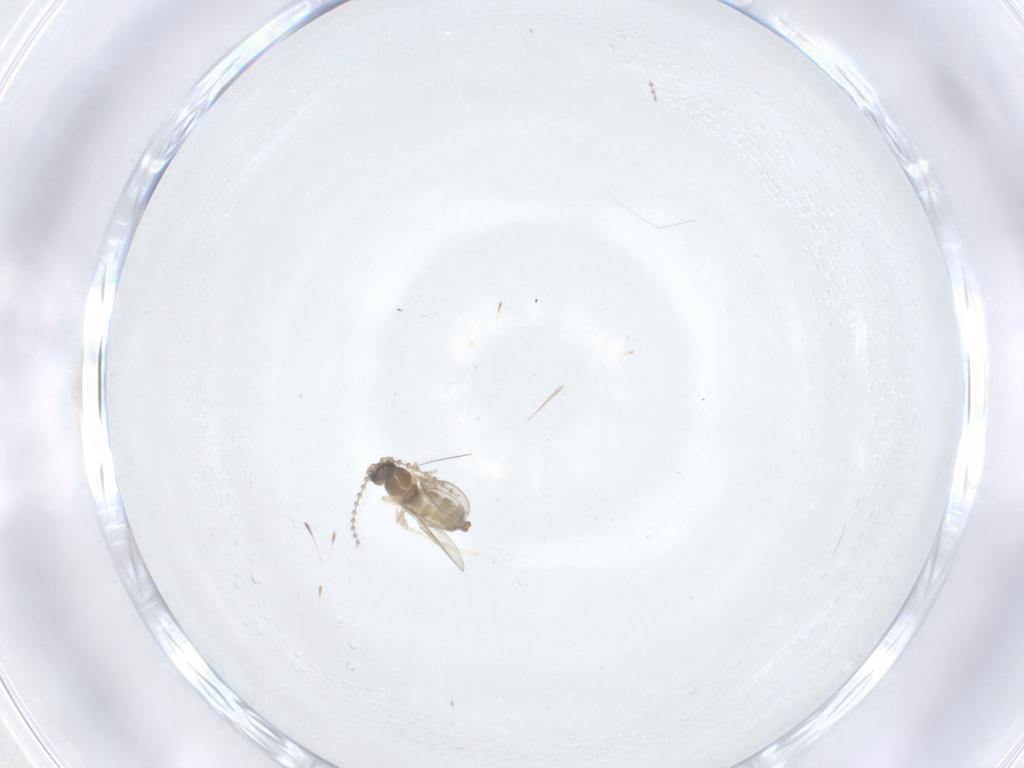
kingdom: Animalia
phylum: Arthropoda
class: Insecta
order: Diptera
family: Cecidomyiidae
